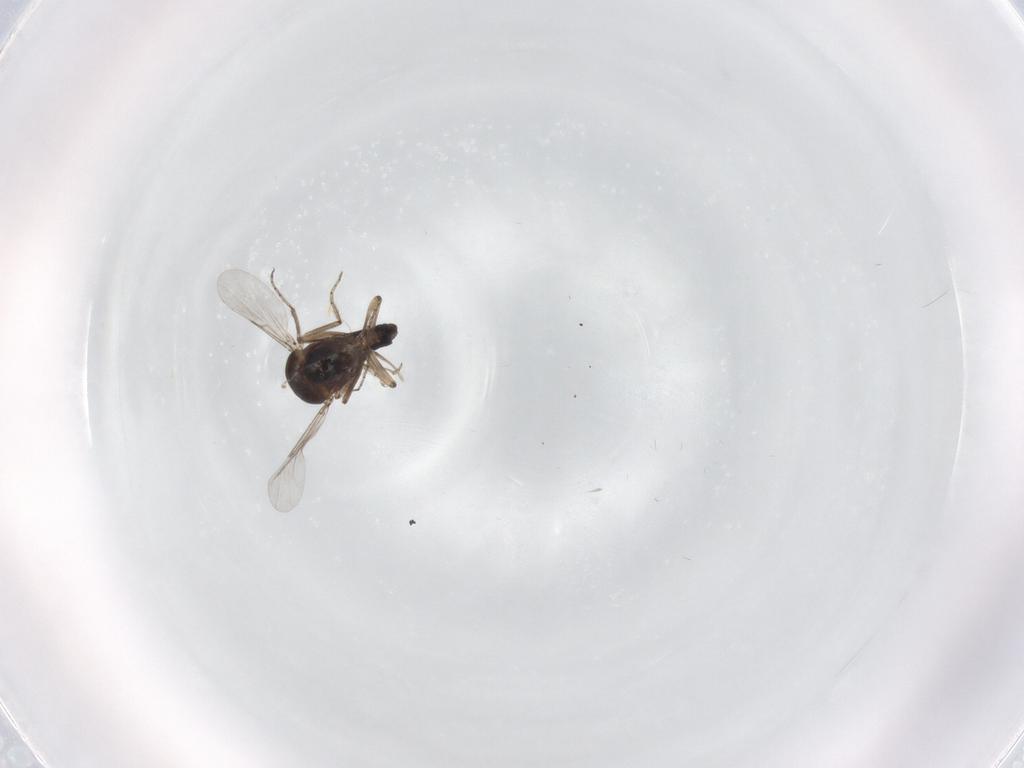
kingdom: Animalia
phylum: Arthropoda
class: Insecta
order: Diptera
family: Ceratopogonidae
